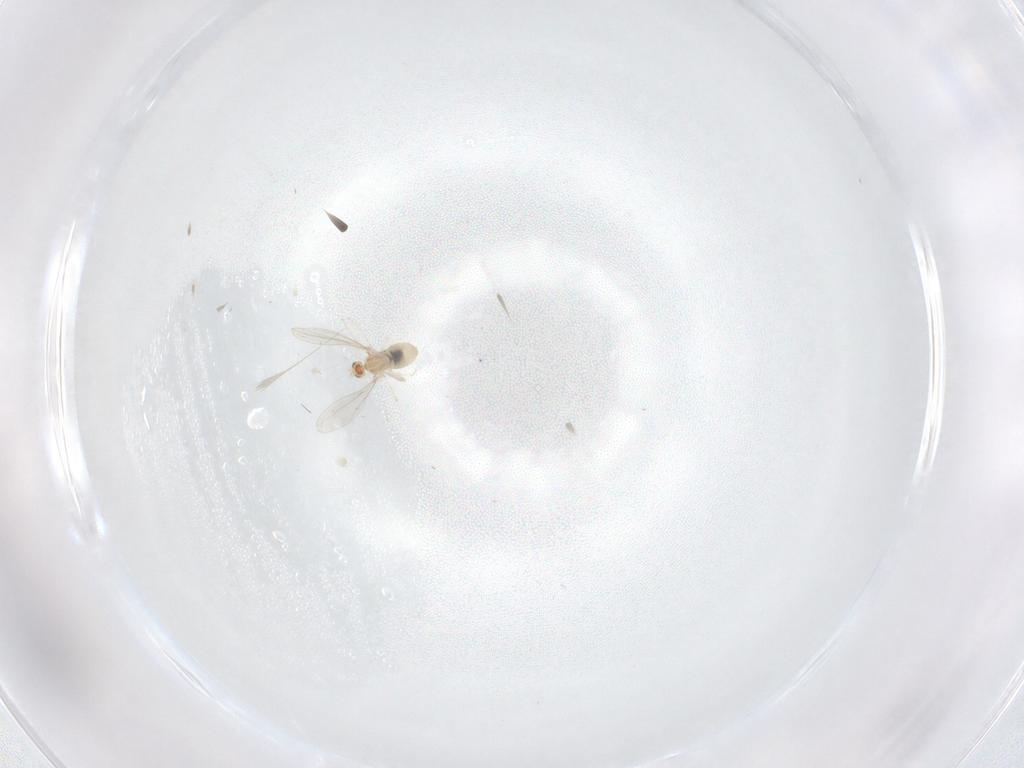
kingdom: Animalia
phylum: Arthropoda
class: Insecta
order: Diptera
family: Cecidomyiidae
